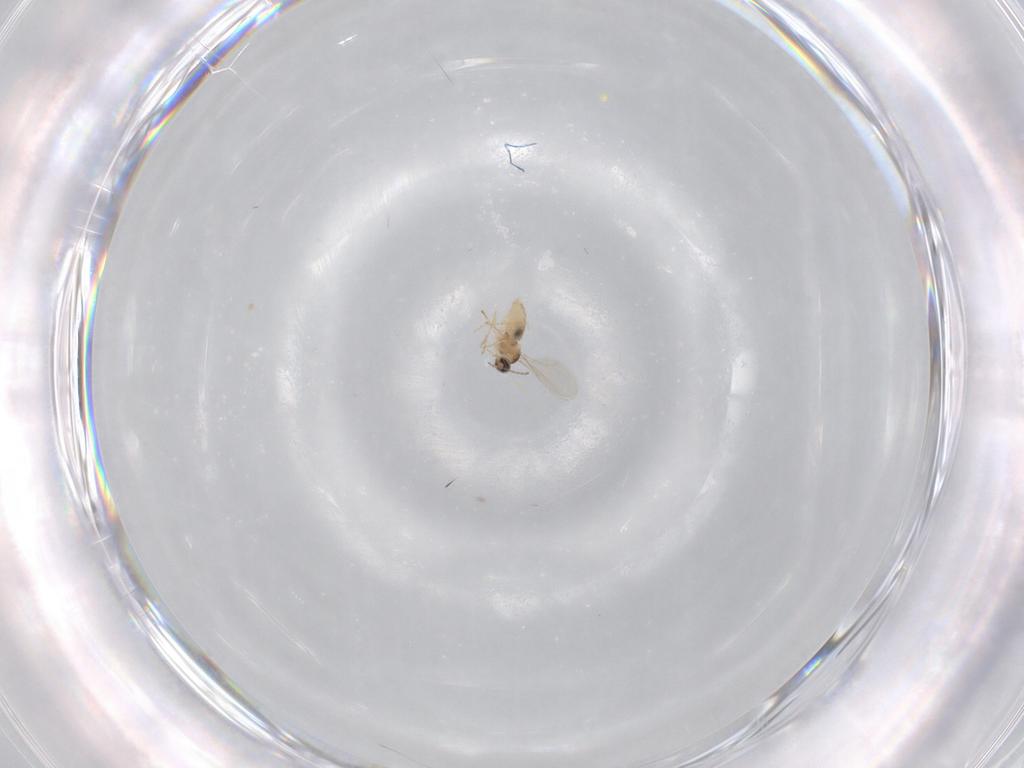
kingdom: Animalia
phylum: Arthropoda
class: Insecta
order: Diptera
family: Cecidomyiidae
